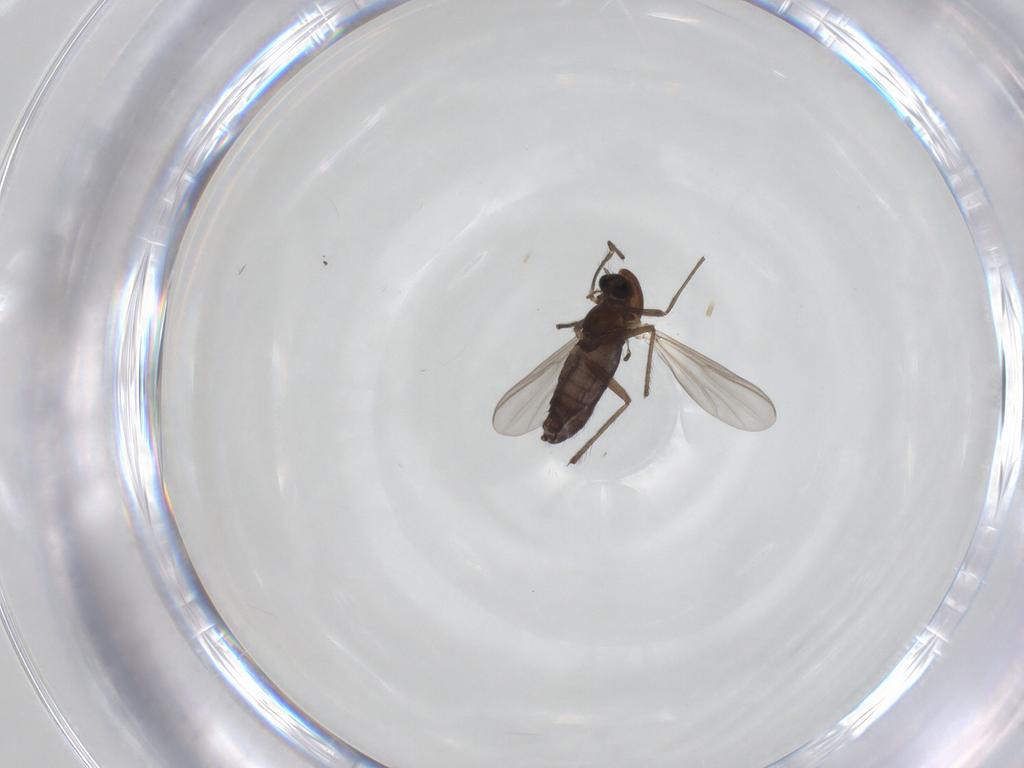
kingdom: Animalia
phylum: Arthropoda
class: Insecta
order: Diptera
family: Chironomidae
